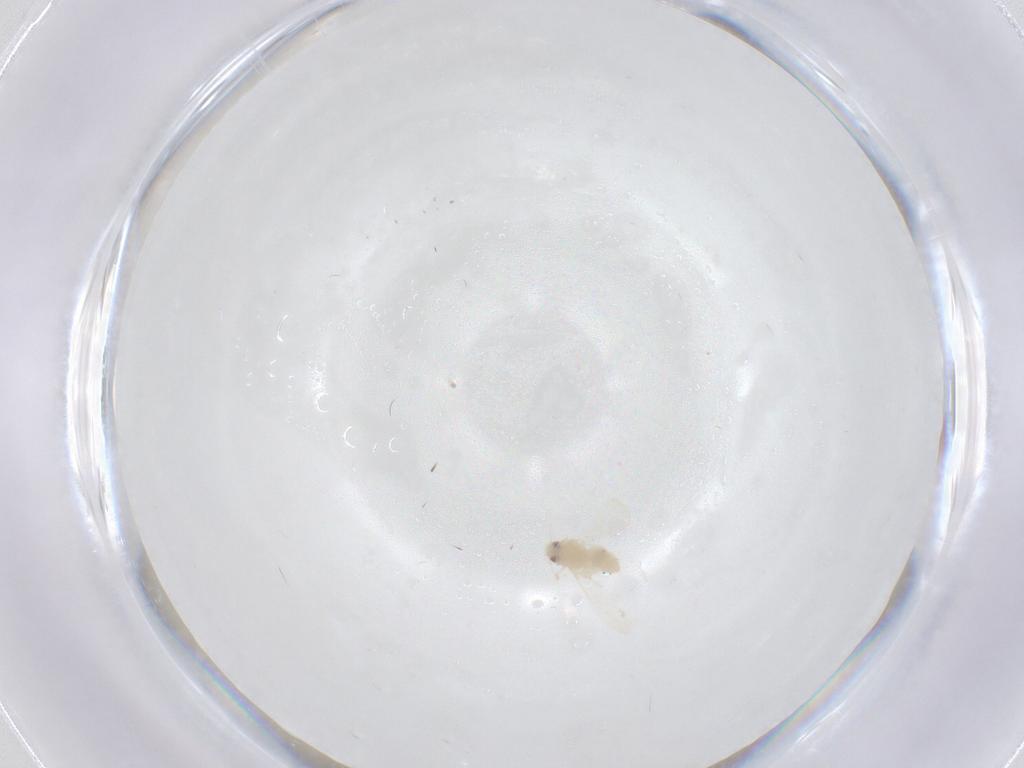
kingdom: Animalia
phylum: Arthropoda
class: Insecta
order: Diptera
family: Psychodidae
